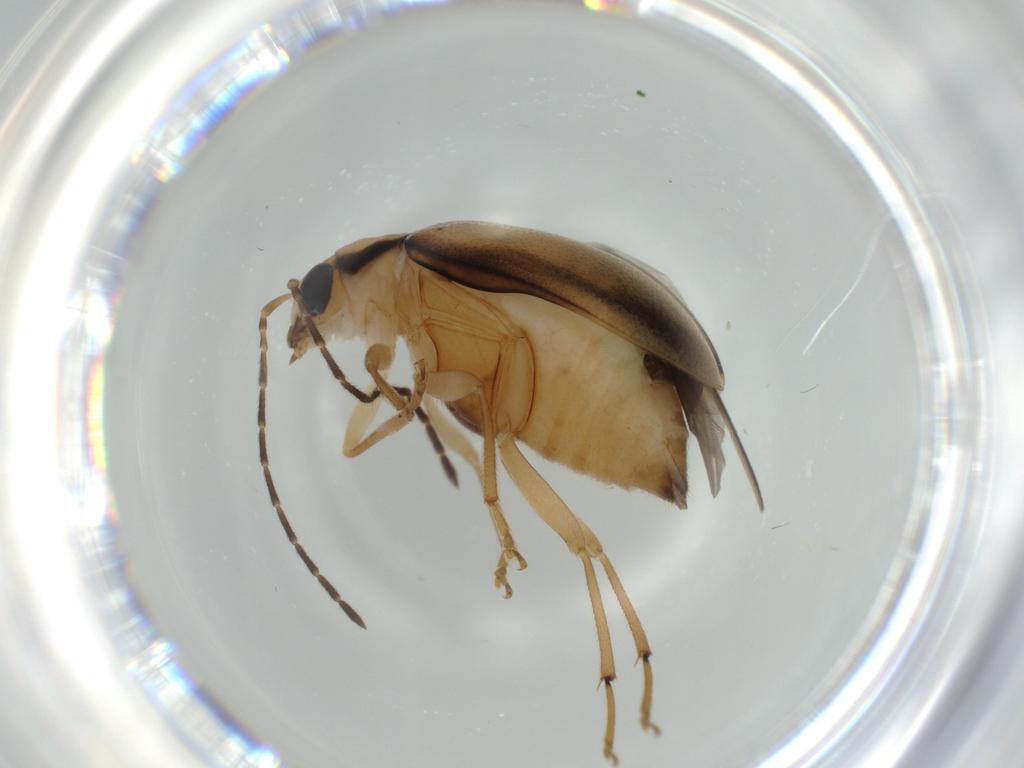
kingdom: Animalia
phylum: Arthropoda
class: Insecta
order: Coleoptera
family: Chrysomelidae
